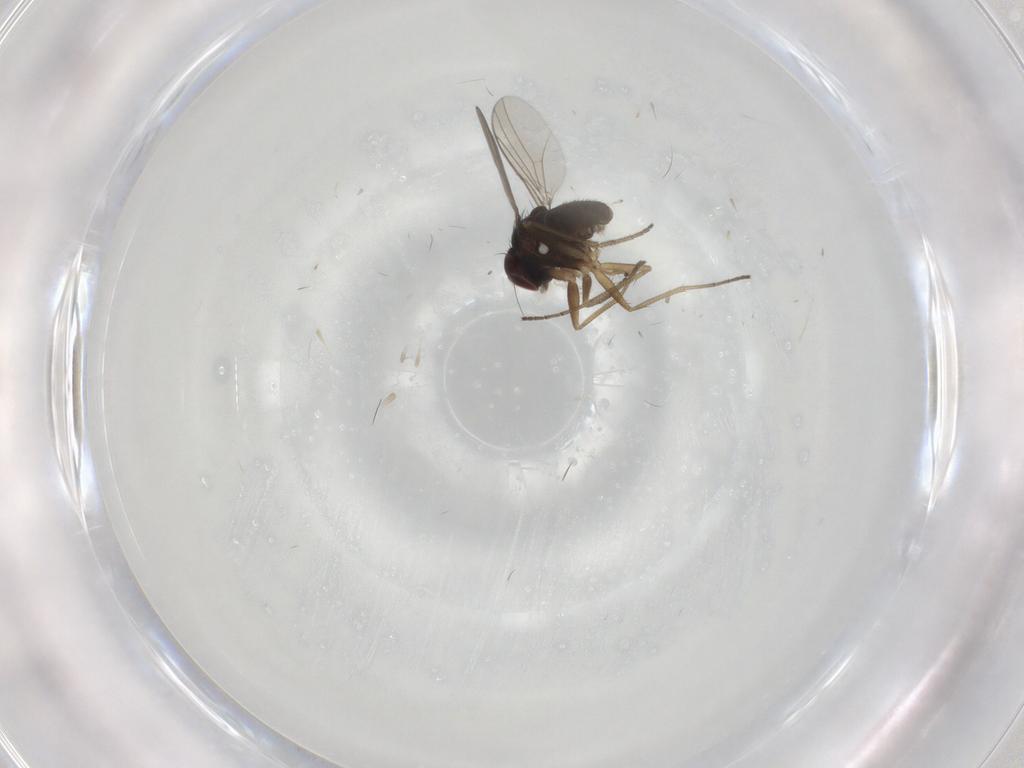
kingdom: Animalia
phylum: Arthropoda
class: Insecta
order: Diptera
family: Dolichopodidae
